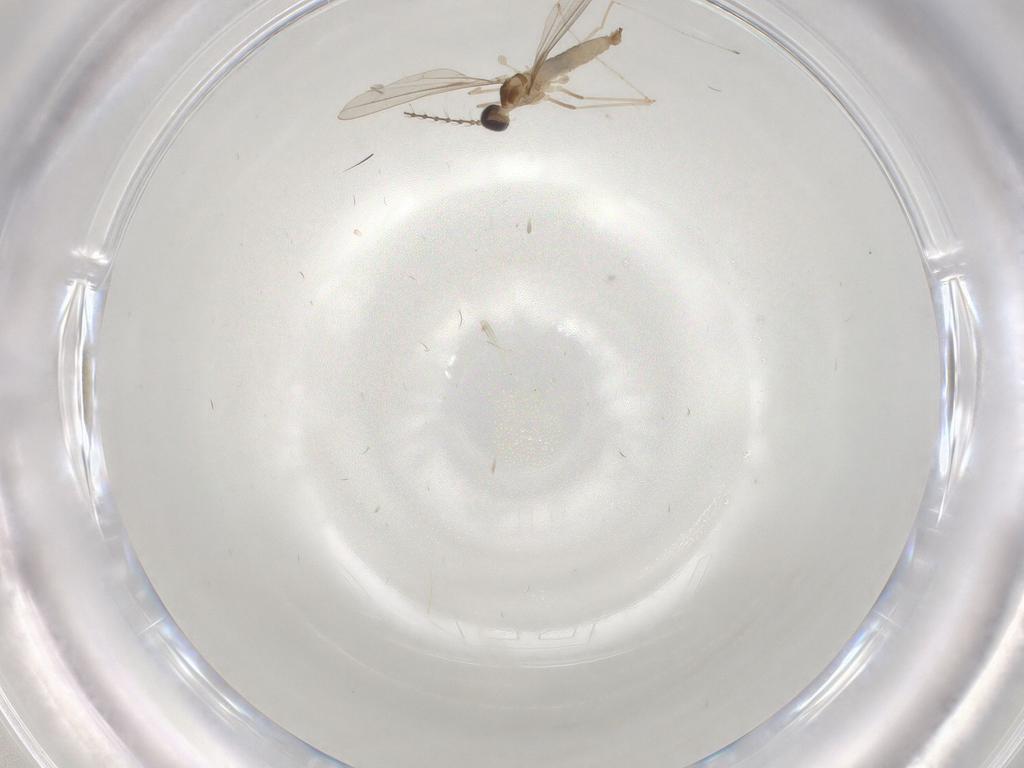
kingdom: Animalia
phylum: Arthropoda
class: Insecta
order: Diptera
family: Cecidomyiidae
